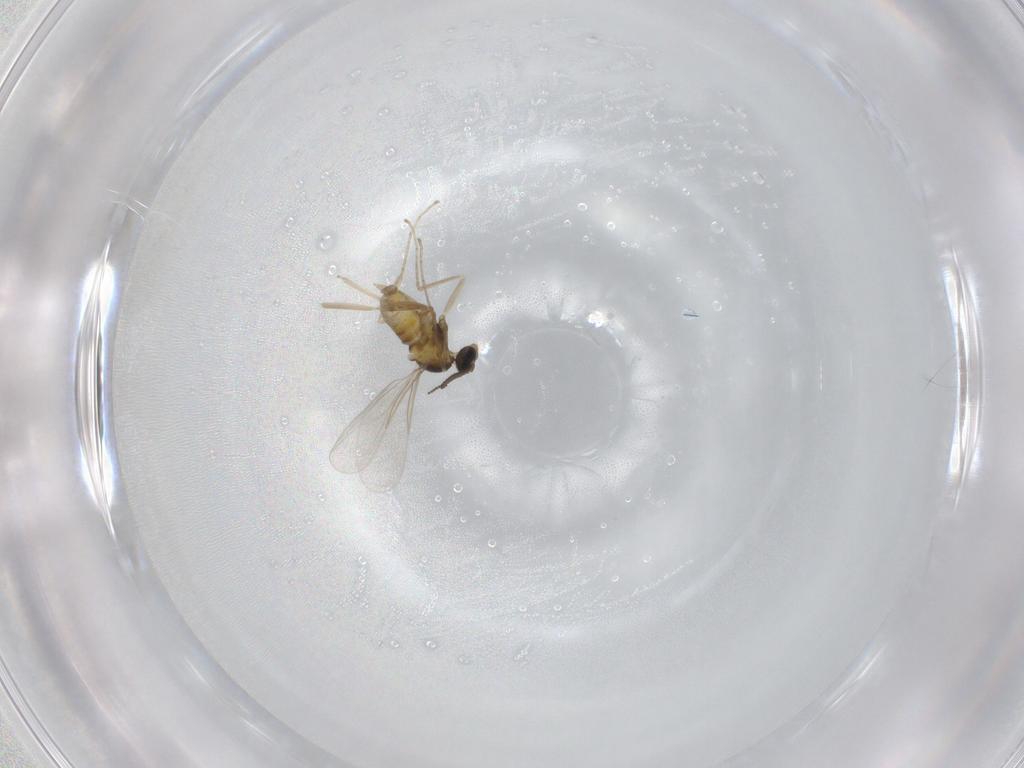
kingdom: Animalia
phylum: Arthropoda
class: Insecta
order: Diptera
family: Cecidomyiidae
